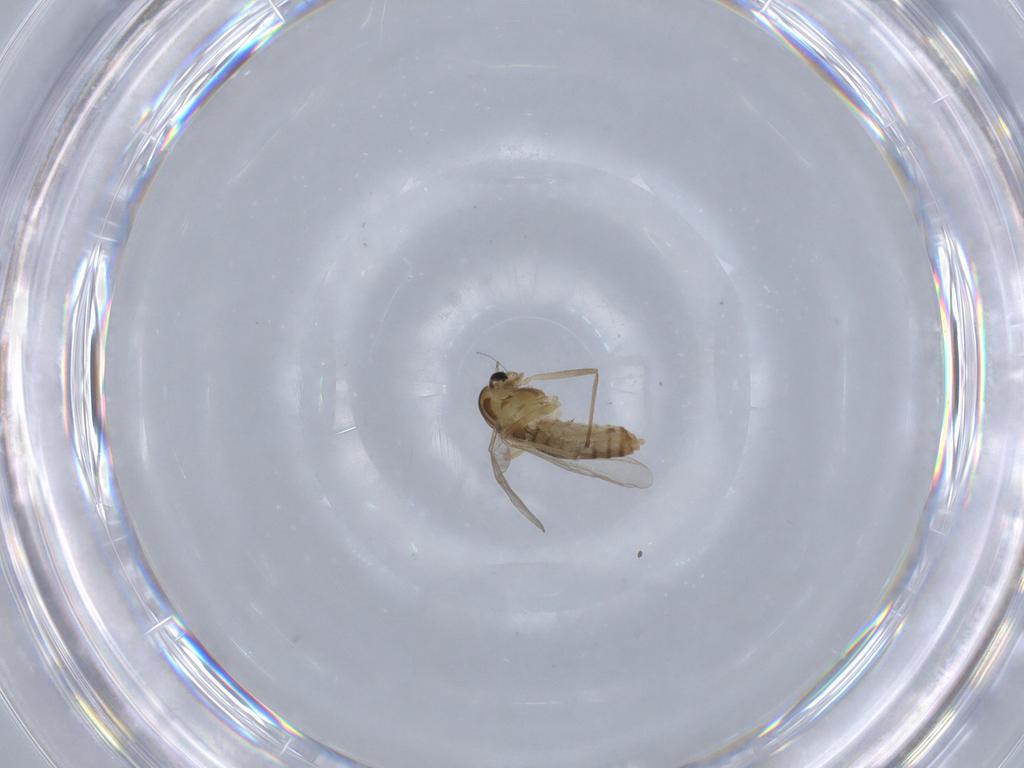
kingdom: Animalia
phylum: Arthropoda
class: Insecta
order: Diptera
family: Chironomidae
